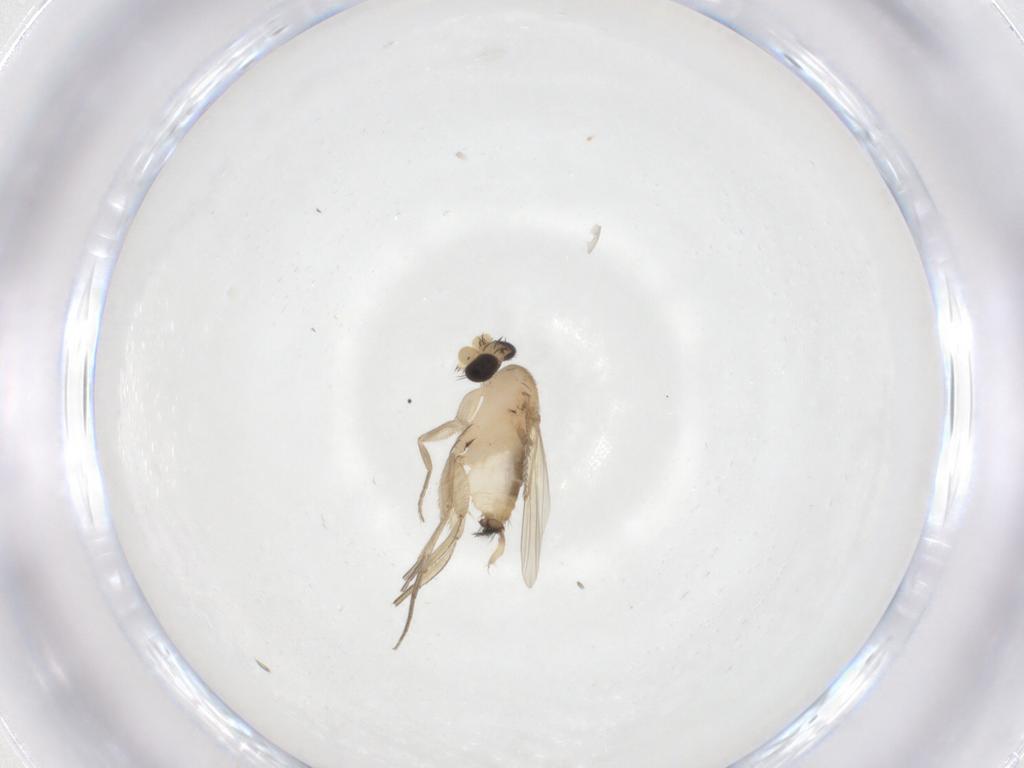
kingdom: Animalia
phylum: Arthropoda
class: Insecta
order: Diptera
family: Phoridae
